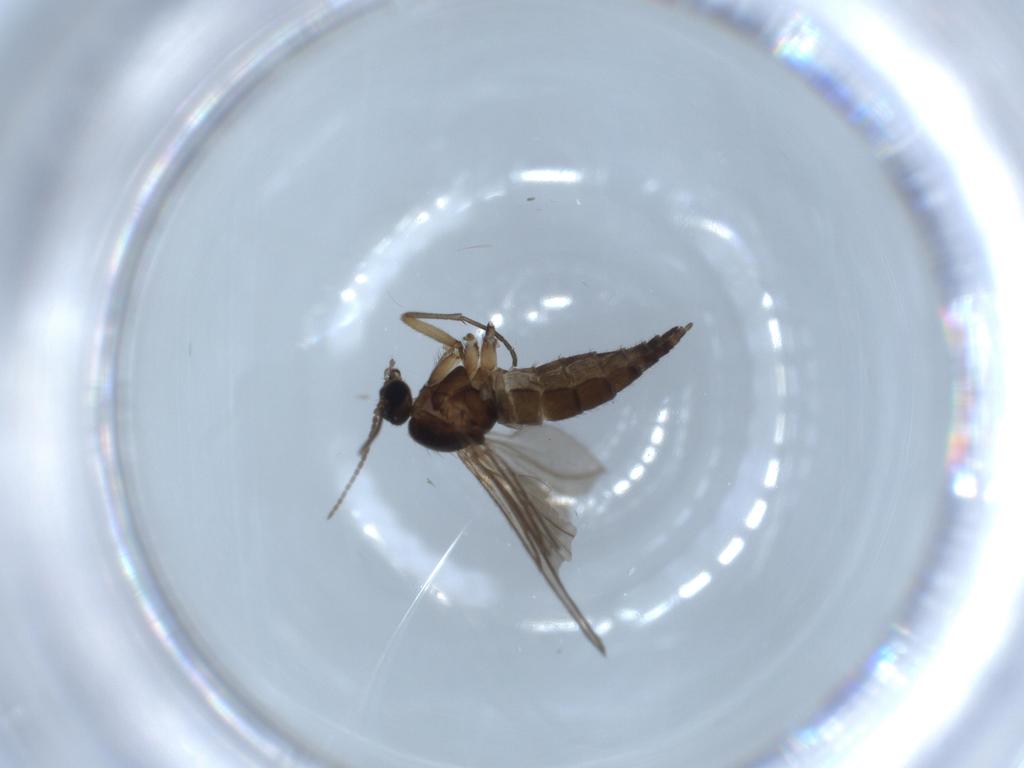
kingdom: Animalia
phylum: Arthropoda
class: Insecta
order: Diptera
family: Sciaridae
